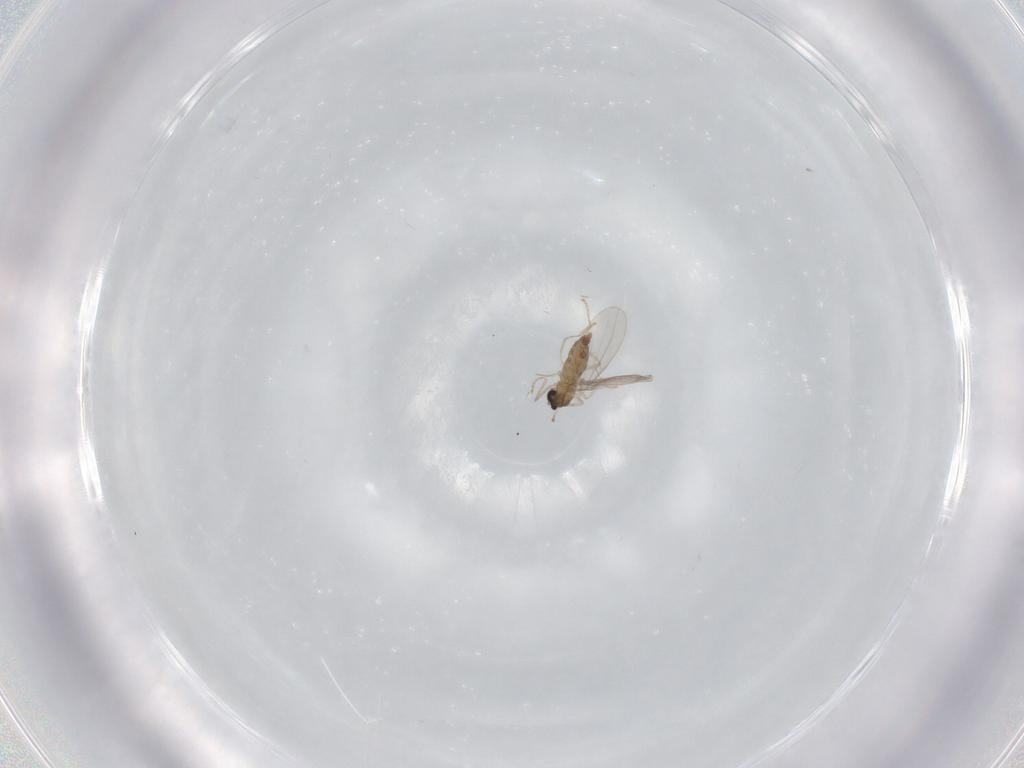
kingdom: Animalia
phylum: Arthropoda
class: Insecta
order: Diptera
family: Cecidomyiidae
